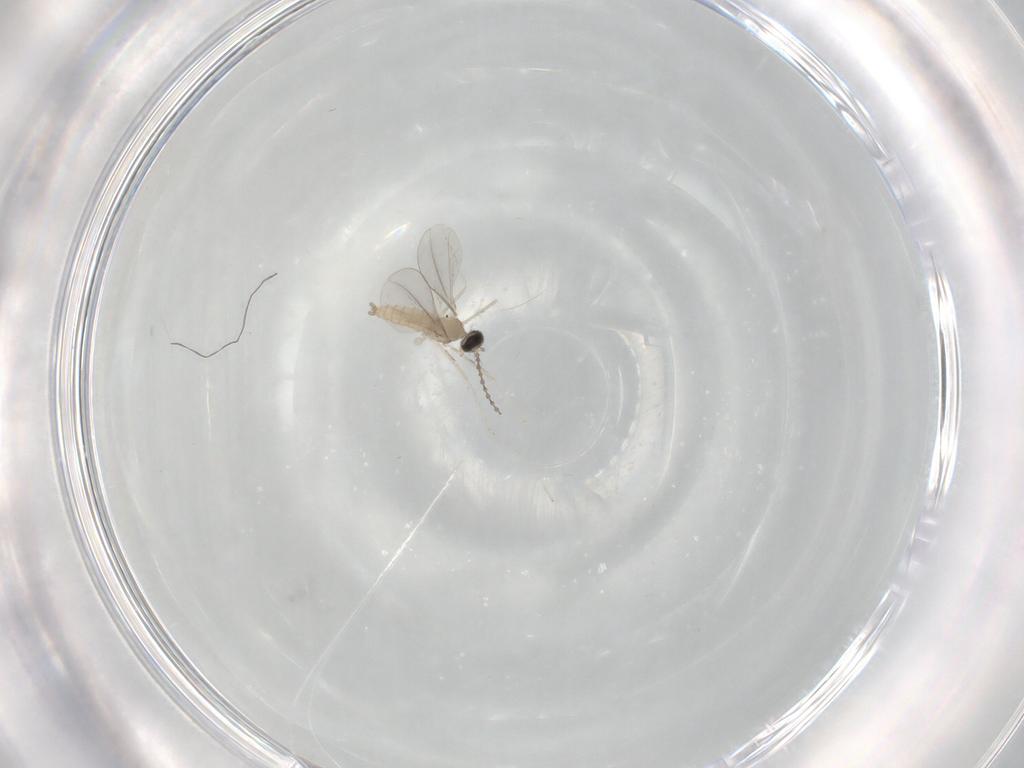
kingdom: Animalia
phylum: Arthropoda
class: Insecta
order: Diptera
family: Cecidomyiidae
